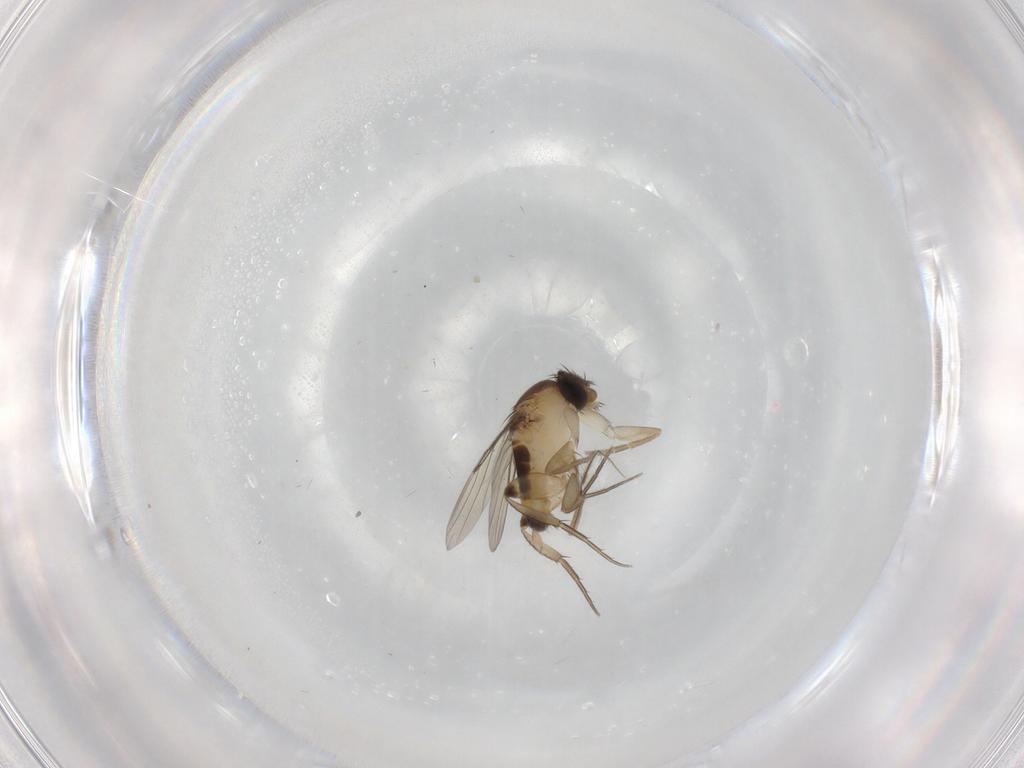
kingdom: Animalia
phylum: Arthropoda
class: Insecta
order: Diptera
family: Phoridae
